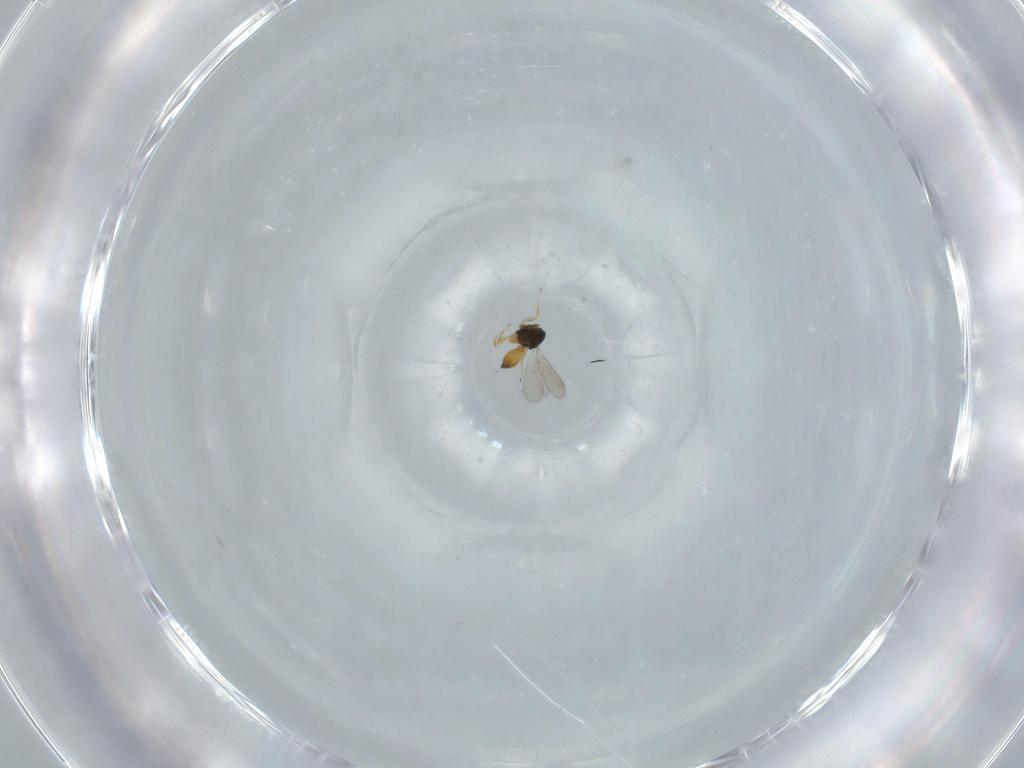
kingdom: Animalia
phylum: Arthropoda
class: Insecta
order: Hymenoptera
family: Scelionidae
